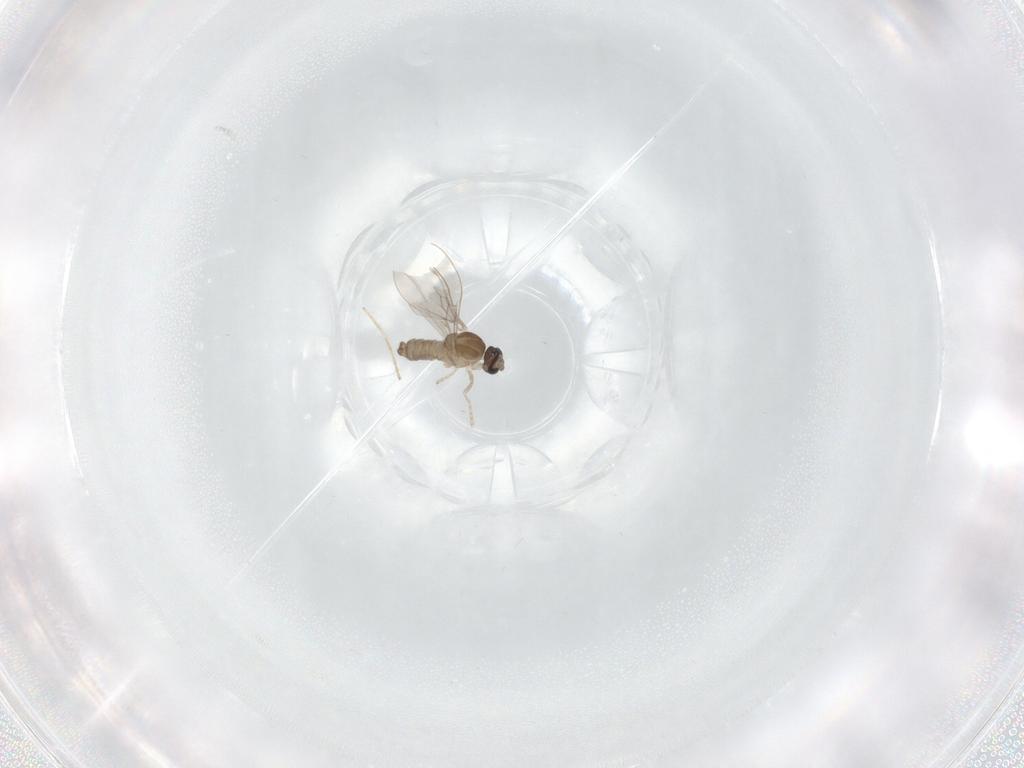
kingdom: Animalia
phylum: Arthropoda
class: Insecta
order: Diptera
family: Cecidomyiidae
